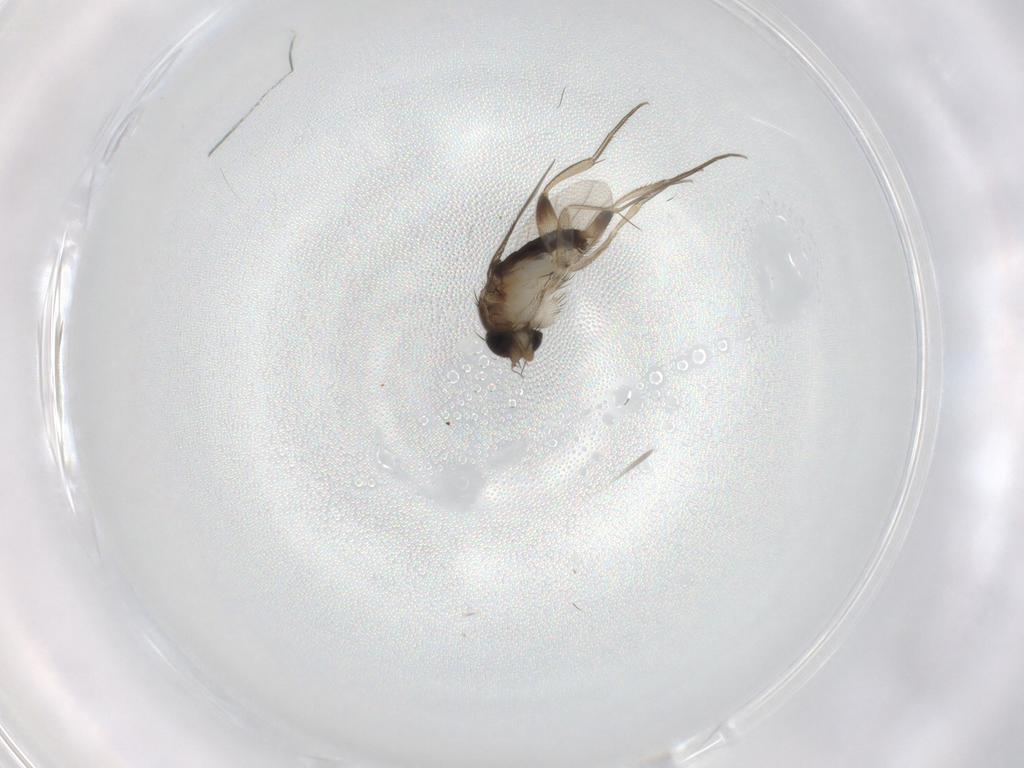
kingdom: Animalia
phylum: Arthropoda
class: Insecta
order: Diptera
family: Phoridae
